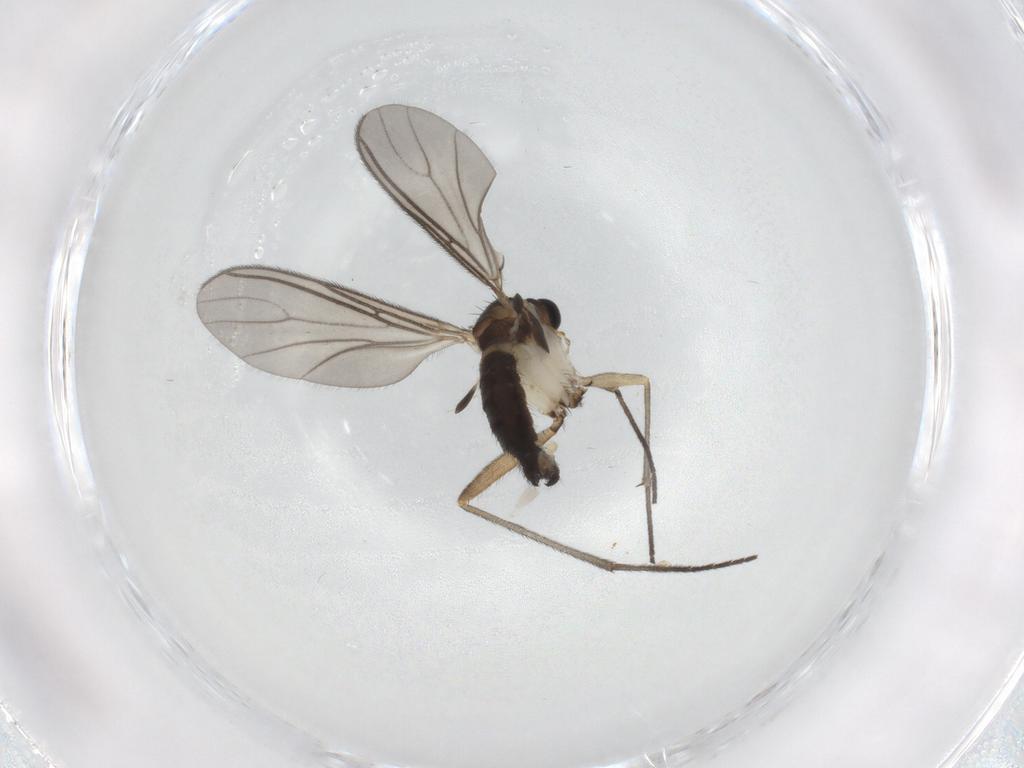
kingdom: Animalia
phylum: Arthropoda
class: Insecta
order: Diptera
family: Sciaridae
